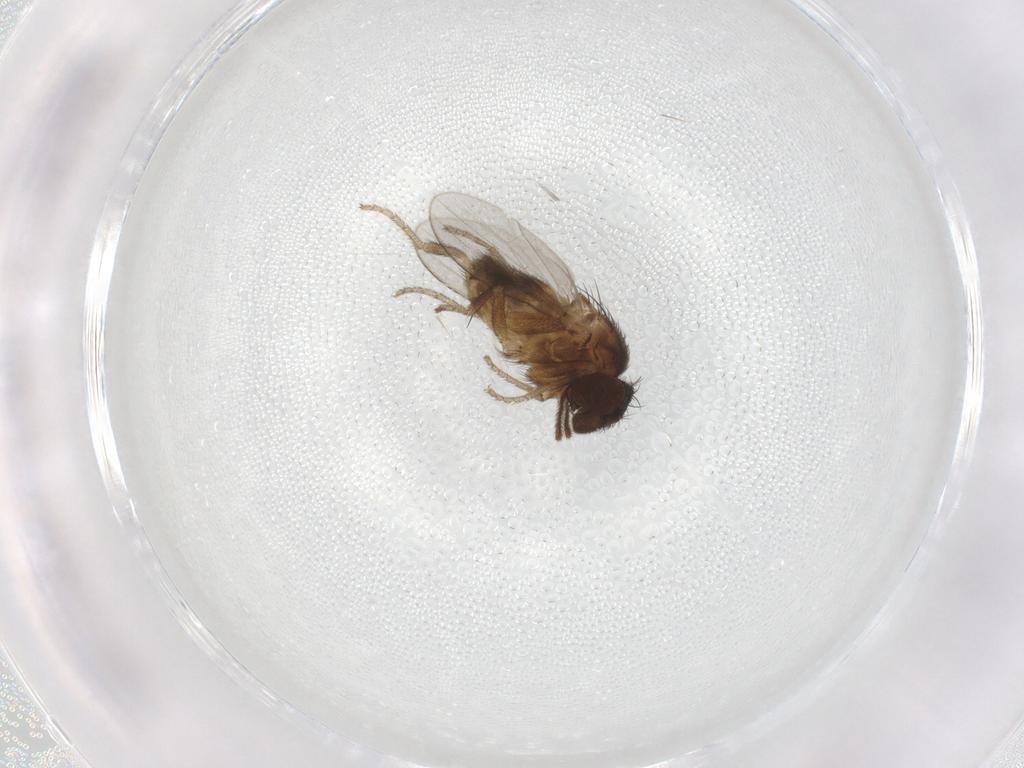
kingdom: Animalia
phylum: Arthropoda
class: Insecta
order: Diptera
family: Milichiidae
